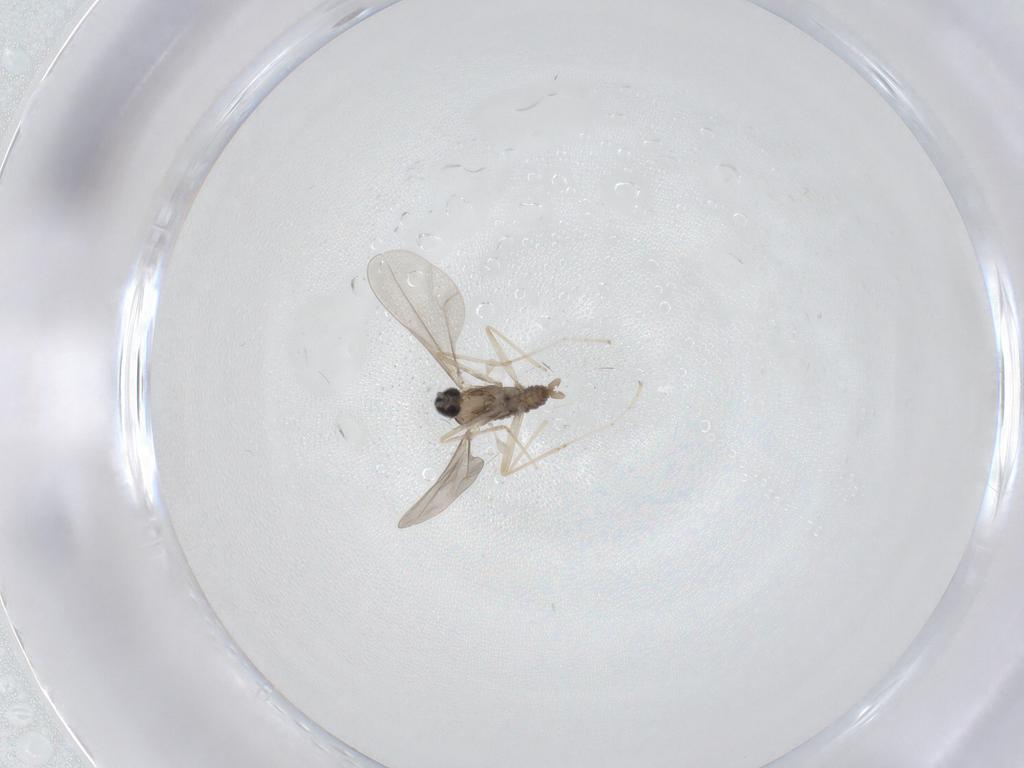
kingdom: Animalia
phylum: Arthropoda
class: Insecta
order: Diptera
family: Cecidomyiidae
